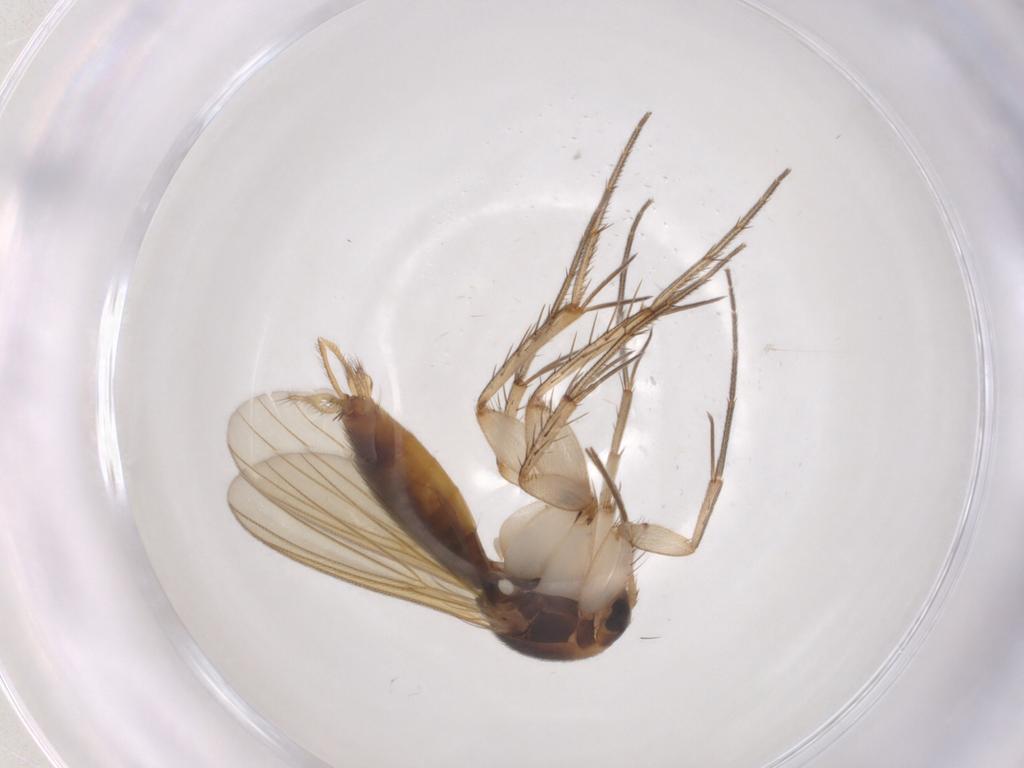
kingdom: Animalia
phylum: Arthropoda
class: Insecta
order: Diptera
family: Mycetophilidae
